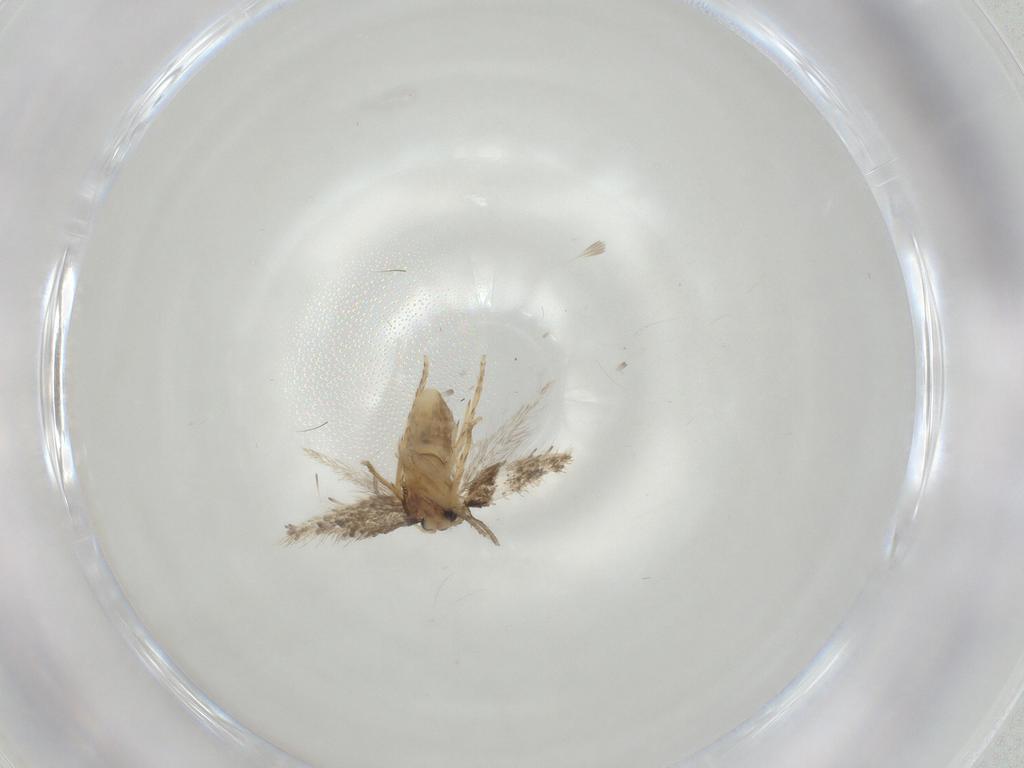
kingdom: Animalia
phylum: Arthropoda
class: Insecta
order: Lepidoptera
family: Nepticulidae
